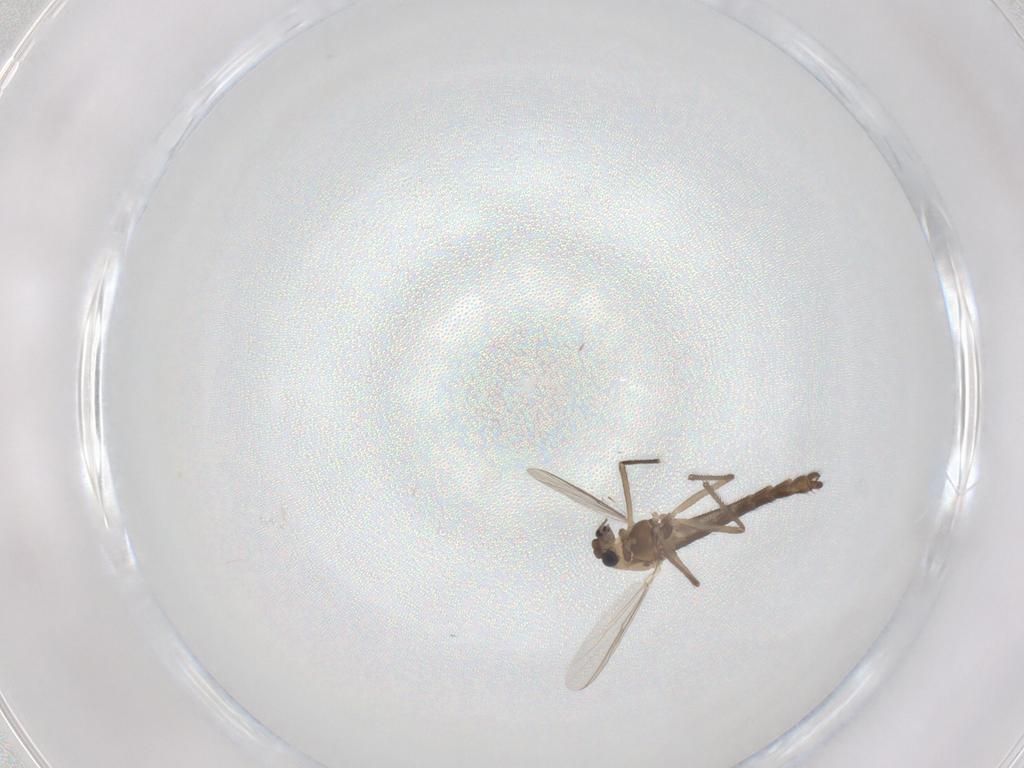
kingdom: Animalia
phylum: Arthropoda
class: Insecta
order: Diptera
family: Chironomidae
